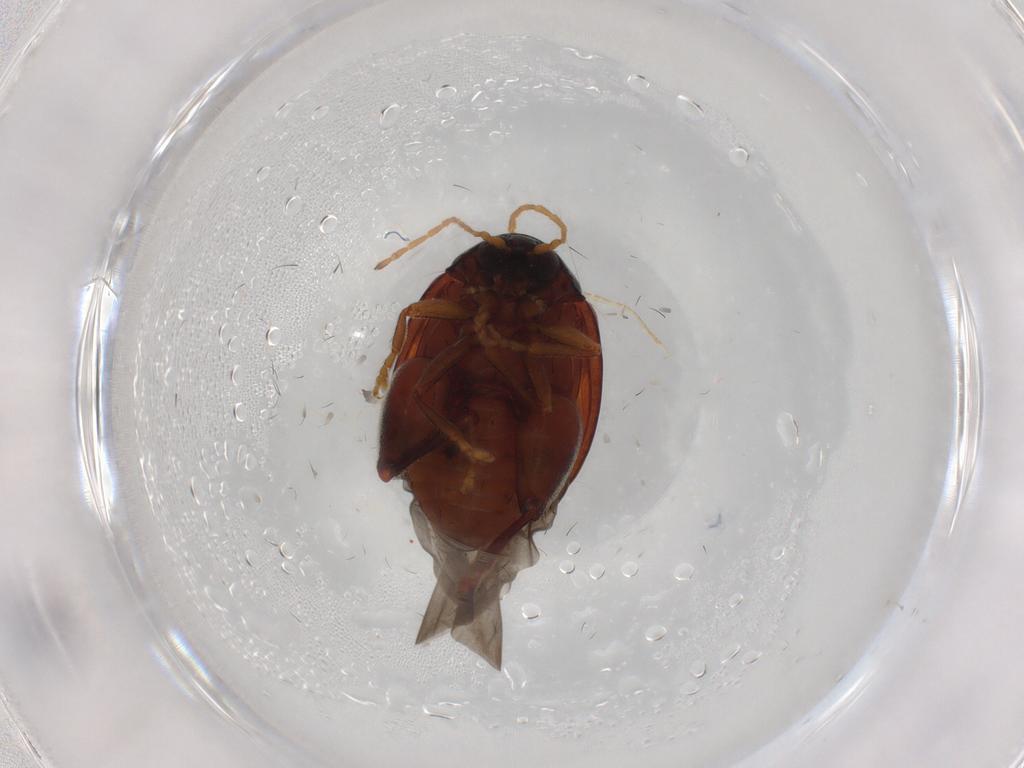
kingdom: Animalia
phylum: Arthropoda
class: Insecta
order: Coleoptera
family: Chrysomelidae
